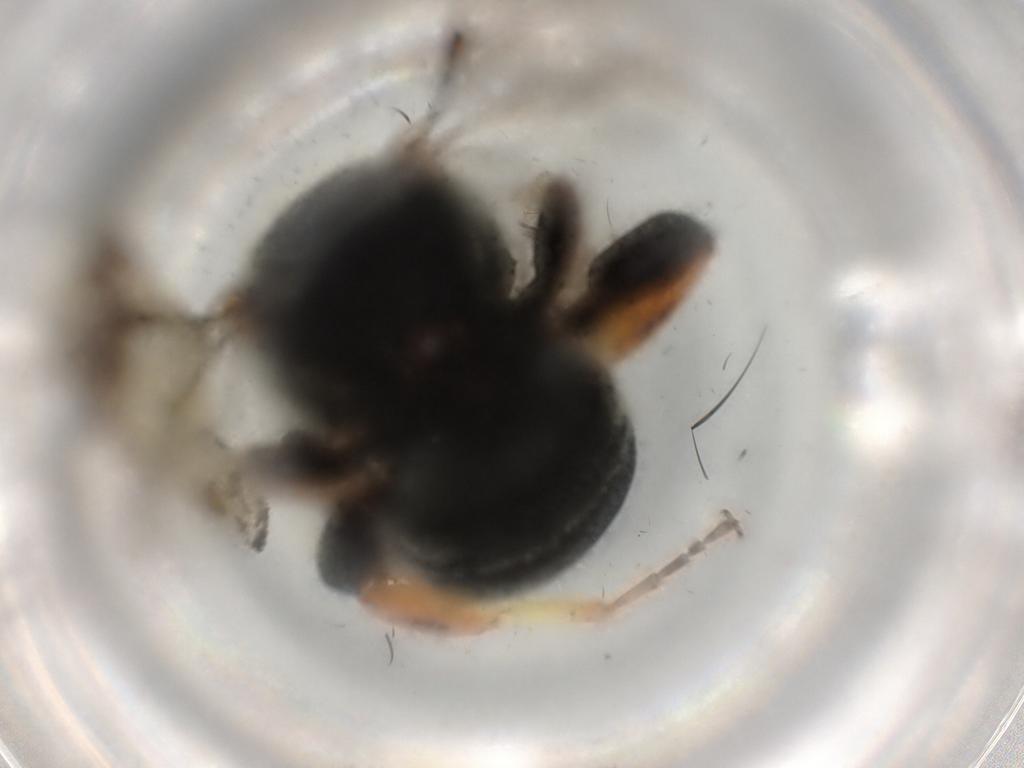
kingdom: Animalia
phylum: Arthropoda
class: Insecta
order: Hymenoptera
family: Halictidae
